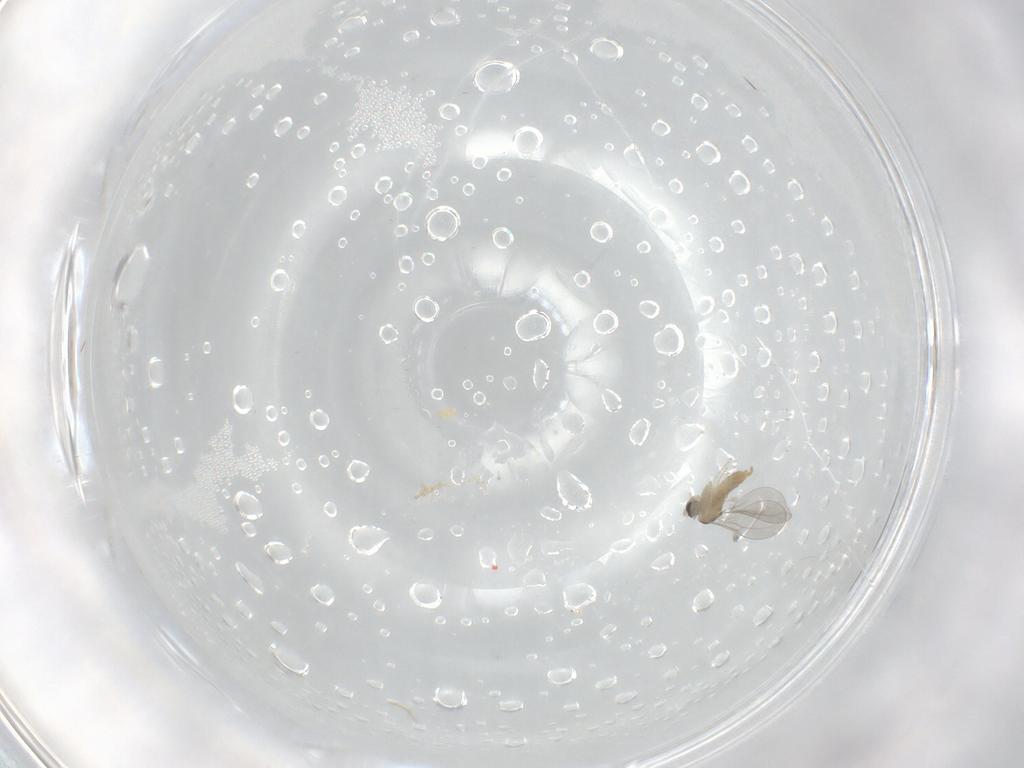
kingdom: Animalia
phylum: Arthropoda
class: Insecta
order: Diptera
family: Cecidomyiidae
